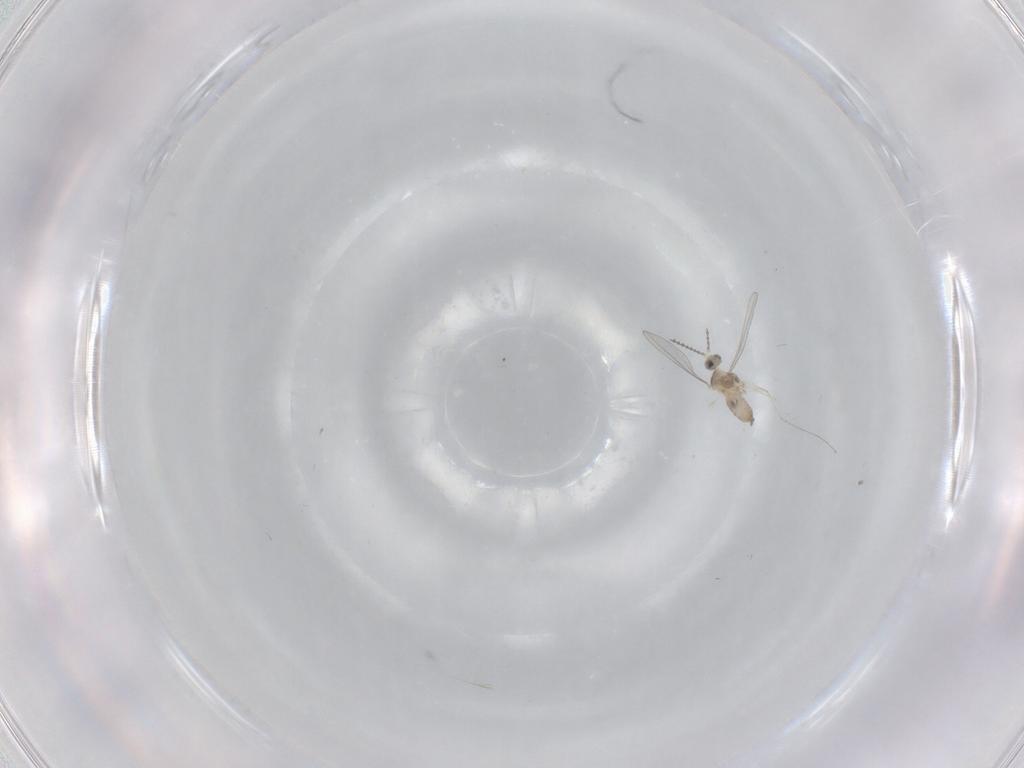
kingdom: Animalia
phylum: Arthropoda
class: Insecta
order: Diptera
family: Cecidomyiidae
